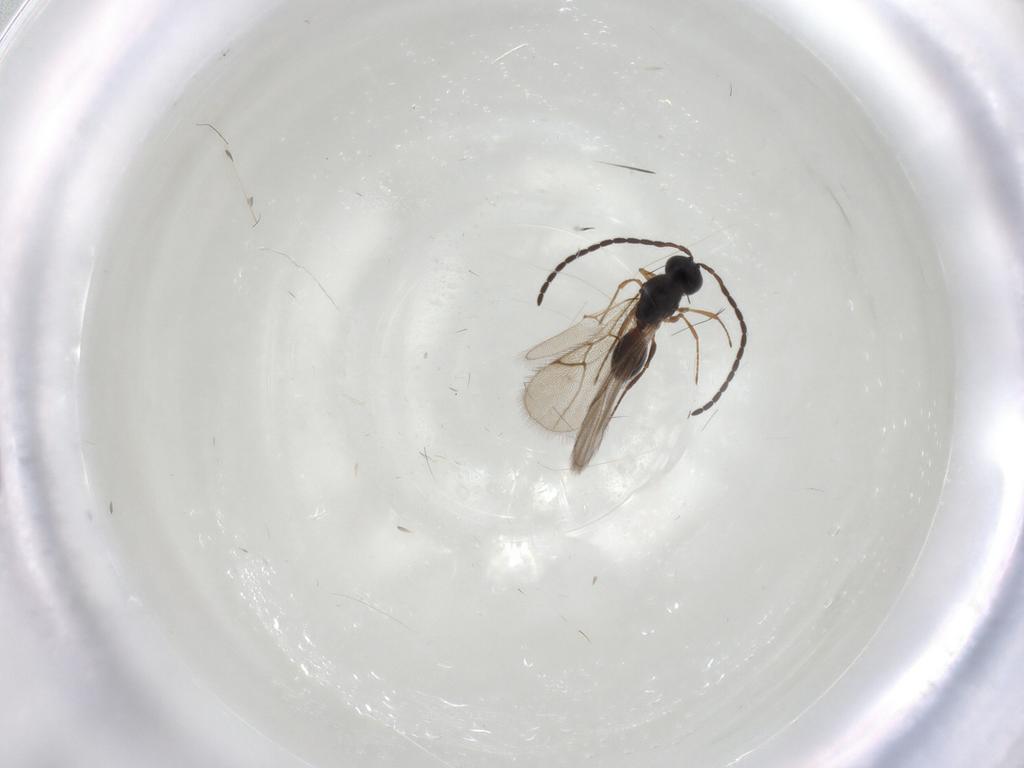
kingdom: Animalia
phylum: Arthropoda
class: Insecta
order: Hymenoptera
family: Figitidae
